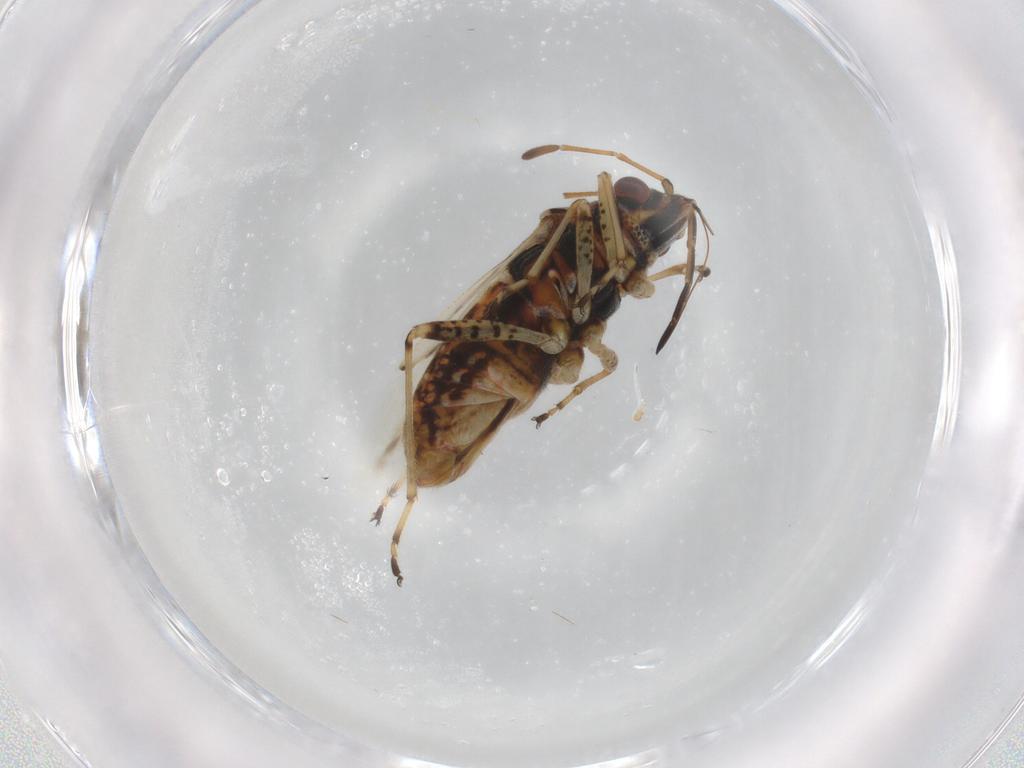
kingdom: Animalia
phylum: Arthropoda
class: Insecta
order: Hemiptera
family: Lygaeidae
